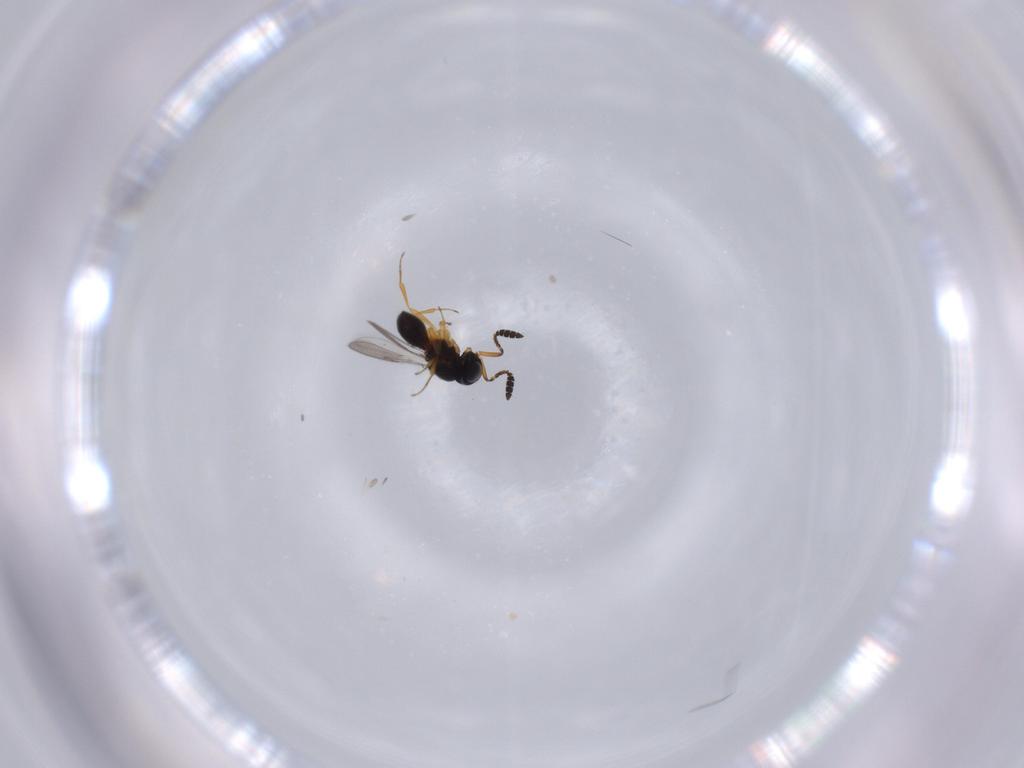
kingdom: Animalia
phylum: Arthropoda
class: Insecta
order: Hymenoptera
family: Scelionidae
